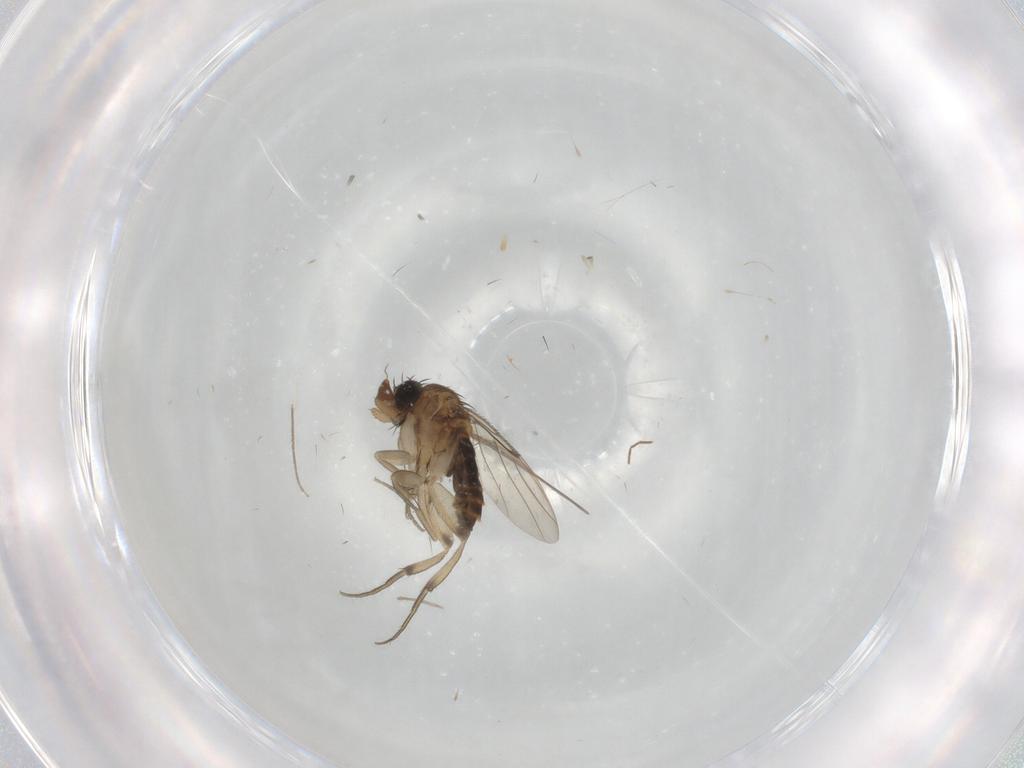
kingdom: Animalia
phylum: Arthropoda
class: Insecta
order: Diptera
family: Phoridae
